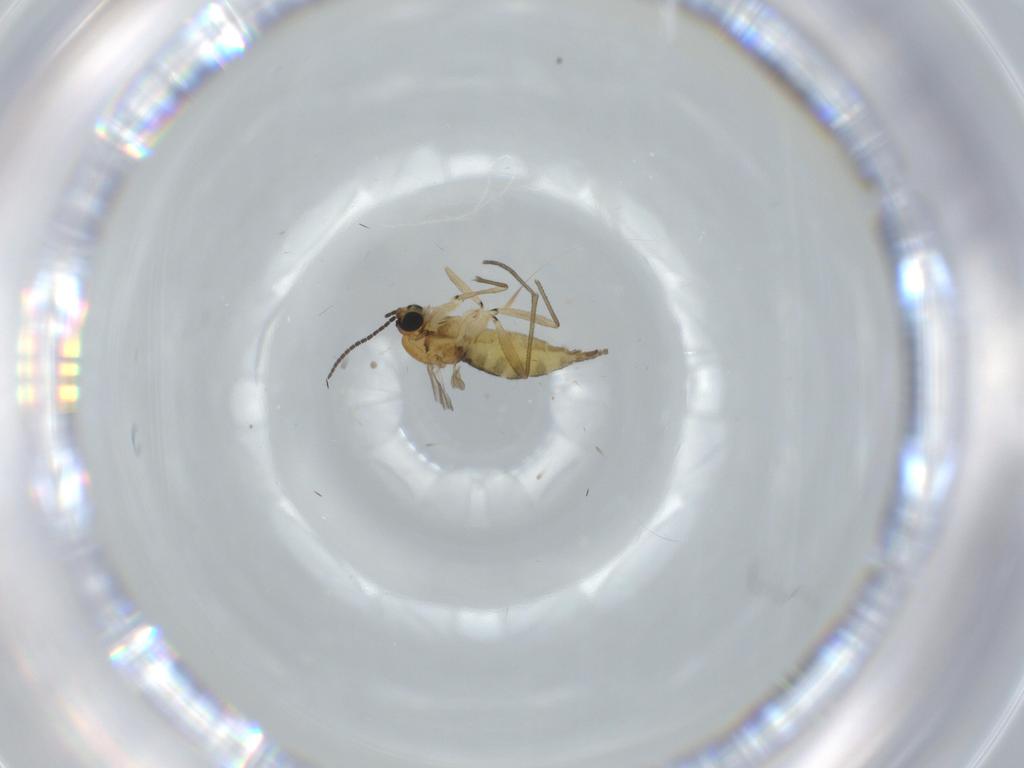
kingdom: Animalia
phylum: Arthropoda
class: Insecta
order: Diptera
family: Sciaridae
